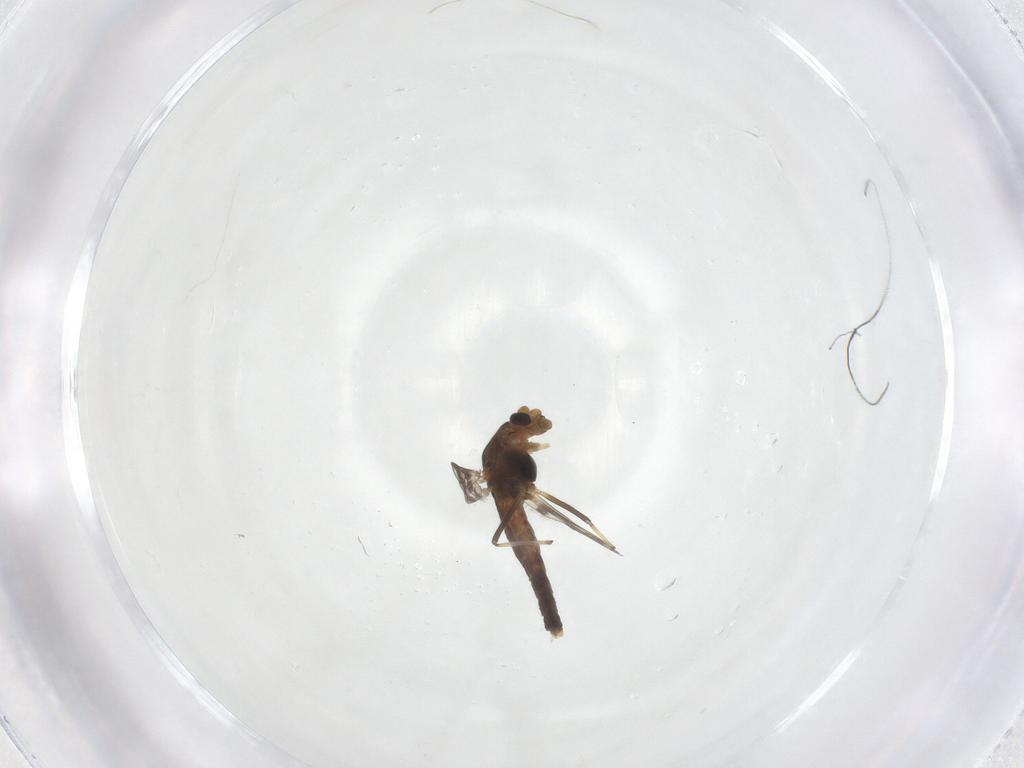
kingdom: Animalia
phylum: Arthropoda
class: Insecta
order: Diptera
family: Chironomidae
